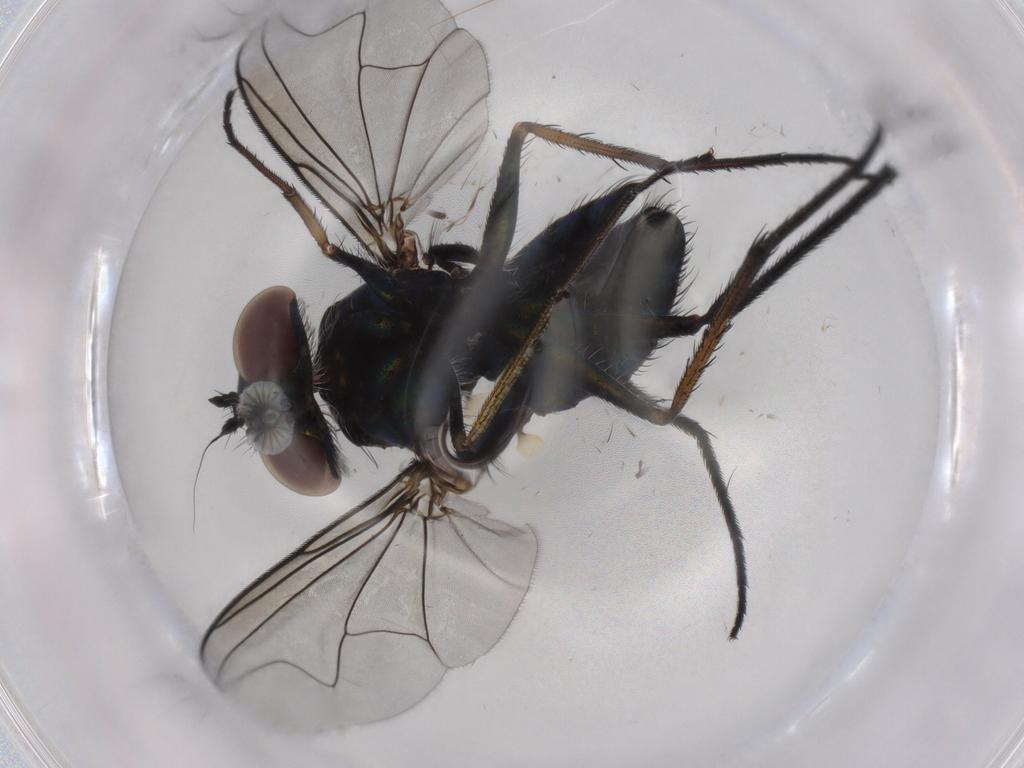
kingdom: Animalia
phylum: Arthropoda
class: Insecta
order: Diptera
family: Dolichopodidae
